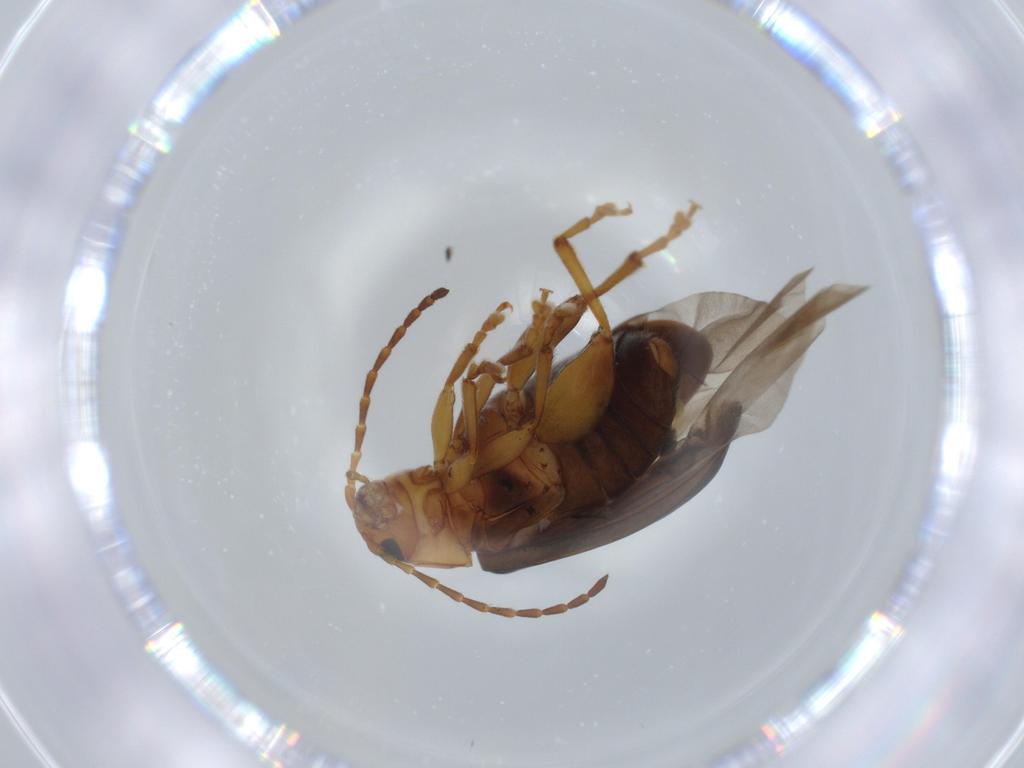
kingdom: Animalia
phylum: Arthropoda
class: Insecta
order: Coleoptera
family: Chrysomelidae
